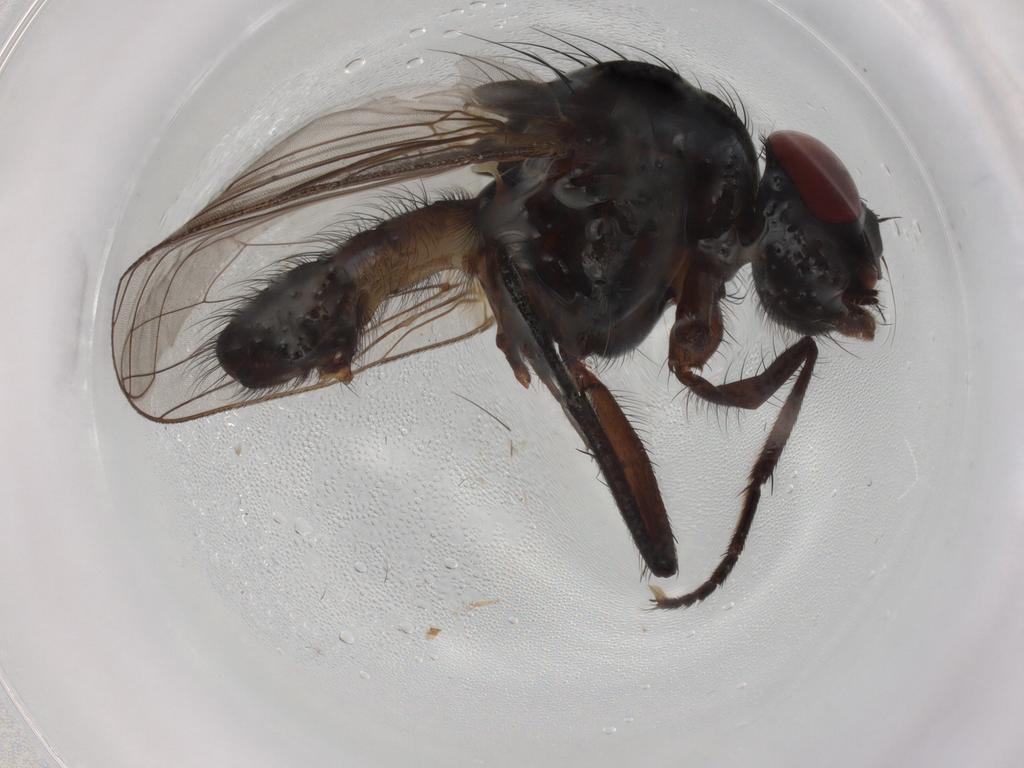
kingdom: Animalia
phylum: Arthropoda
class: Insecta
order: Diptera
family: Anthomyiidae
